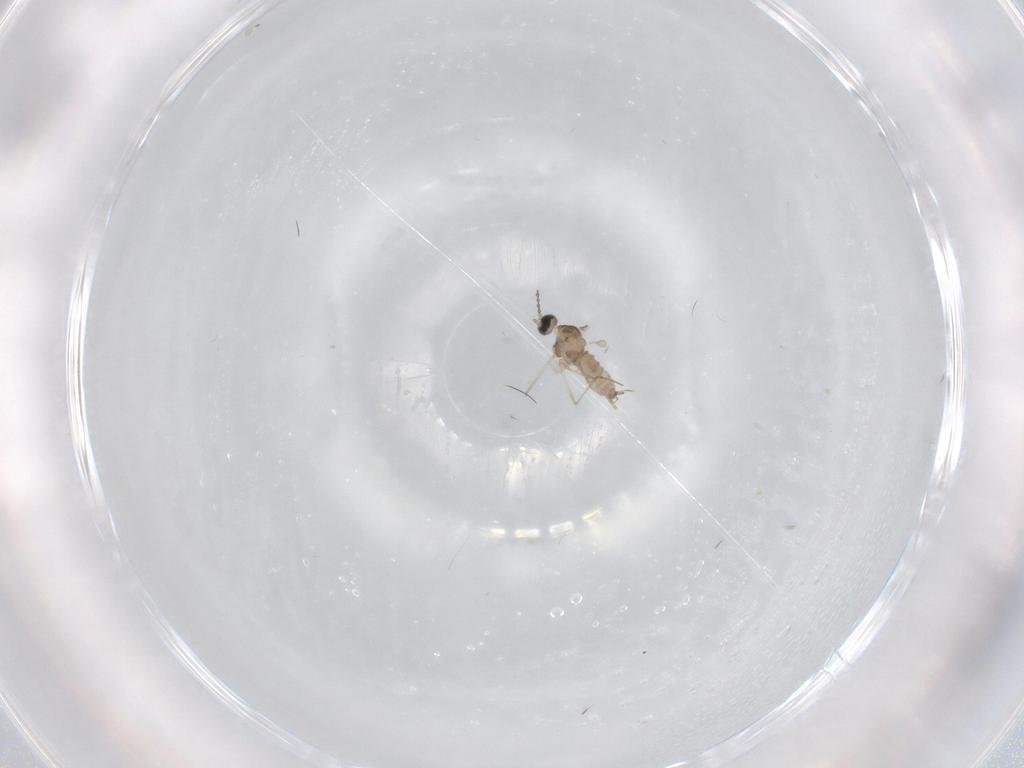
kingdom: Animalia
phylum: Arthropoda
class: Insecta
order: Diptera
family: Cecidomyiidae
